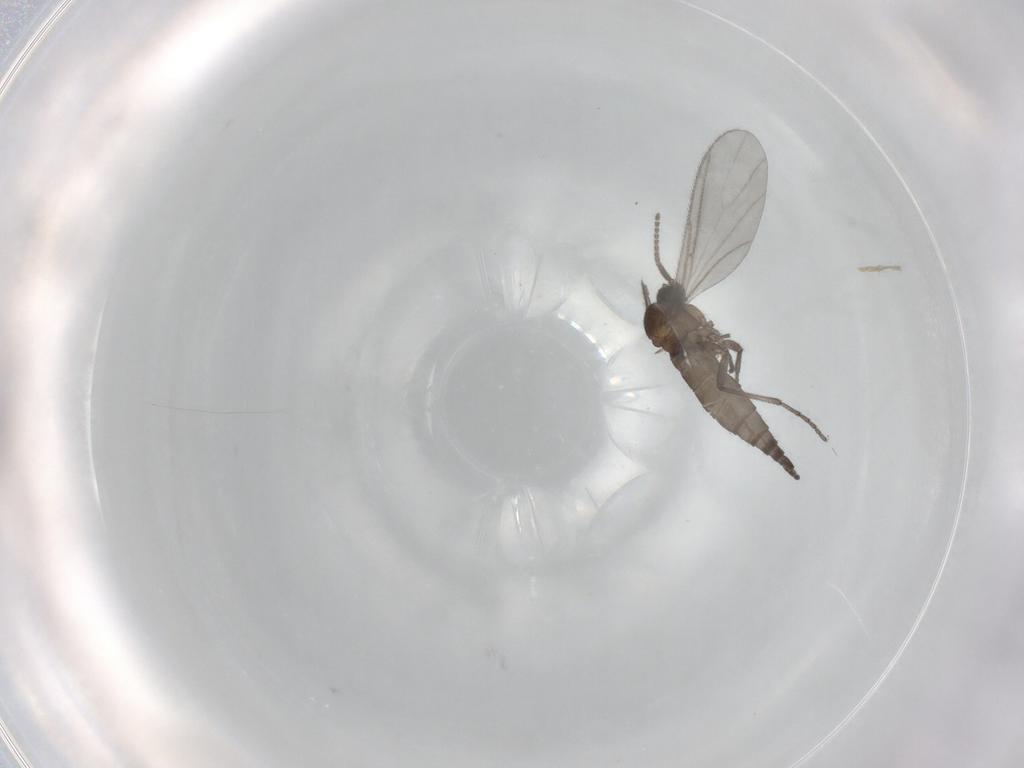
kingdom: Animalia
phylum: Arthropoda
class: Insecta
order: Diptera
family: Sciaridae
